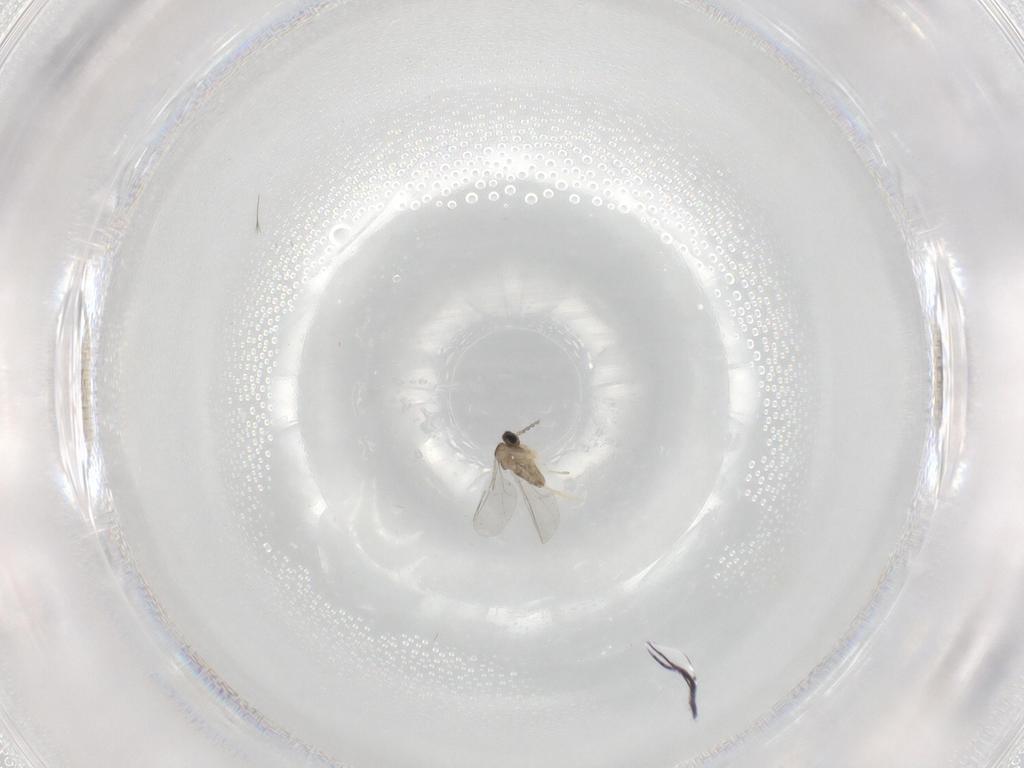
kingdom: Animalia
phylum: Arthropoda
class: Insecta
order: Diptera
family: Cecidomyiidae
